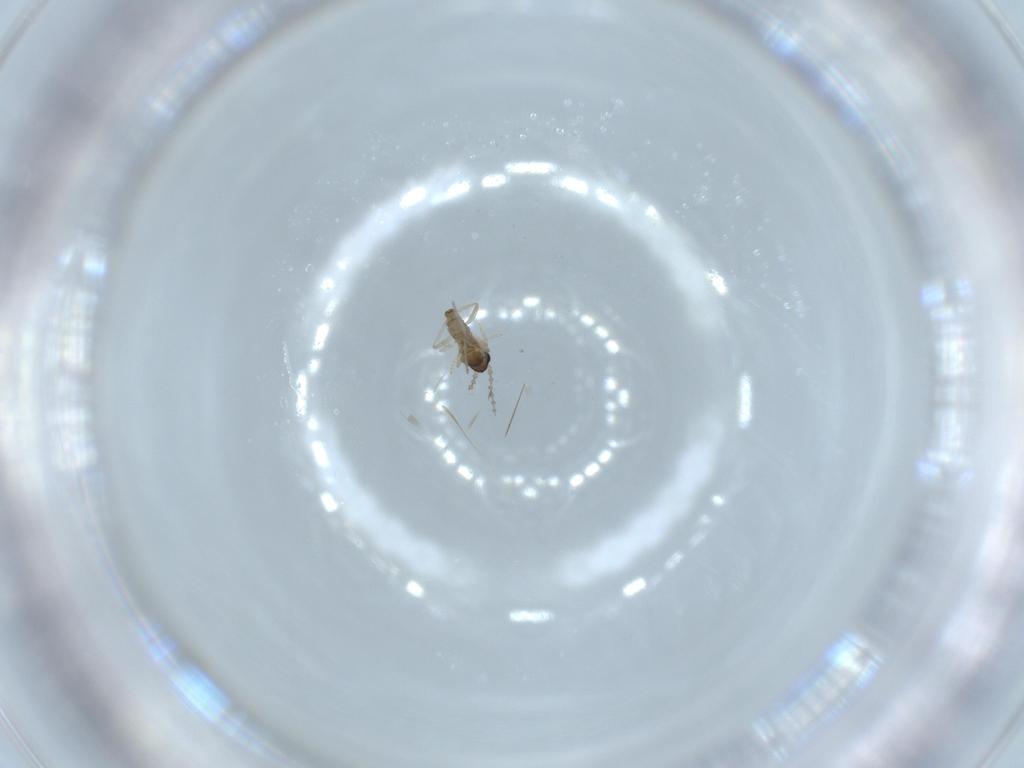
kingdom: Animalia
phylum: Arthropoda
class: Insecta
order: Diptera
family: Cecidomyiidae
